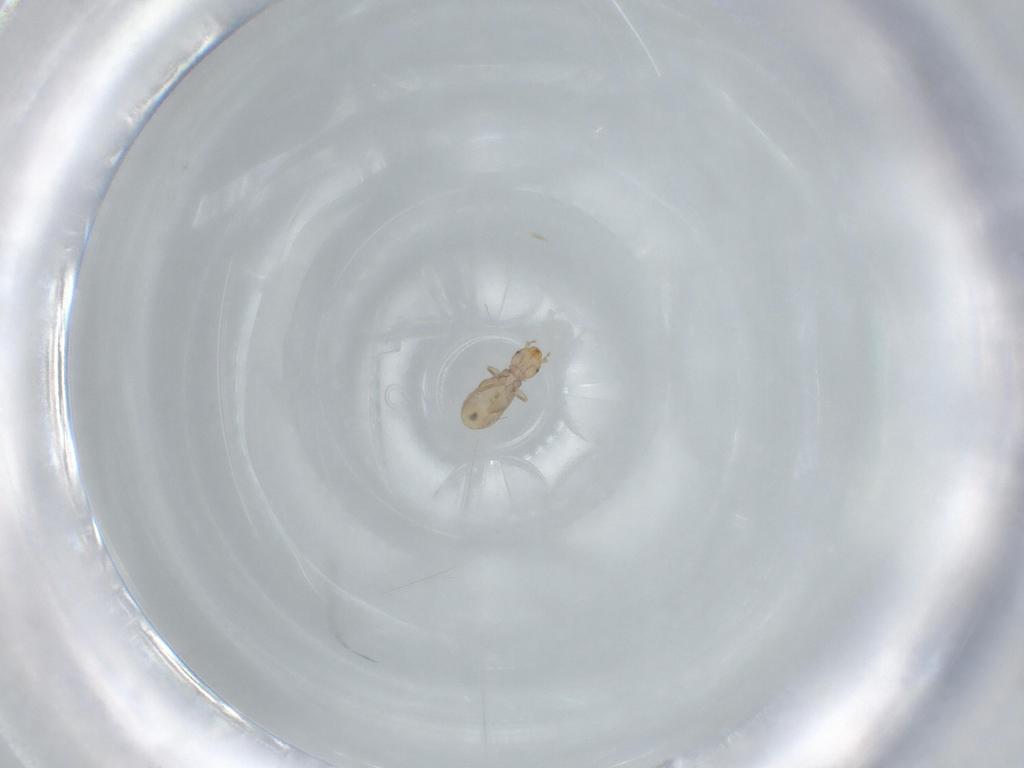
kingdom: Animalia
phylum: Arthropoda
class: Insecta
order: Psocodea
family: Liposcelididae
